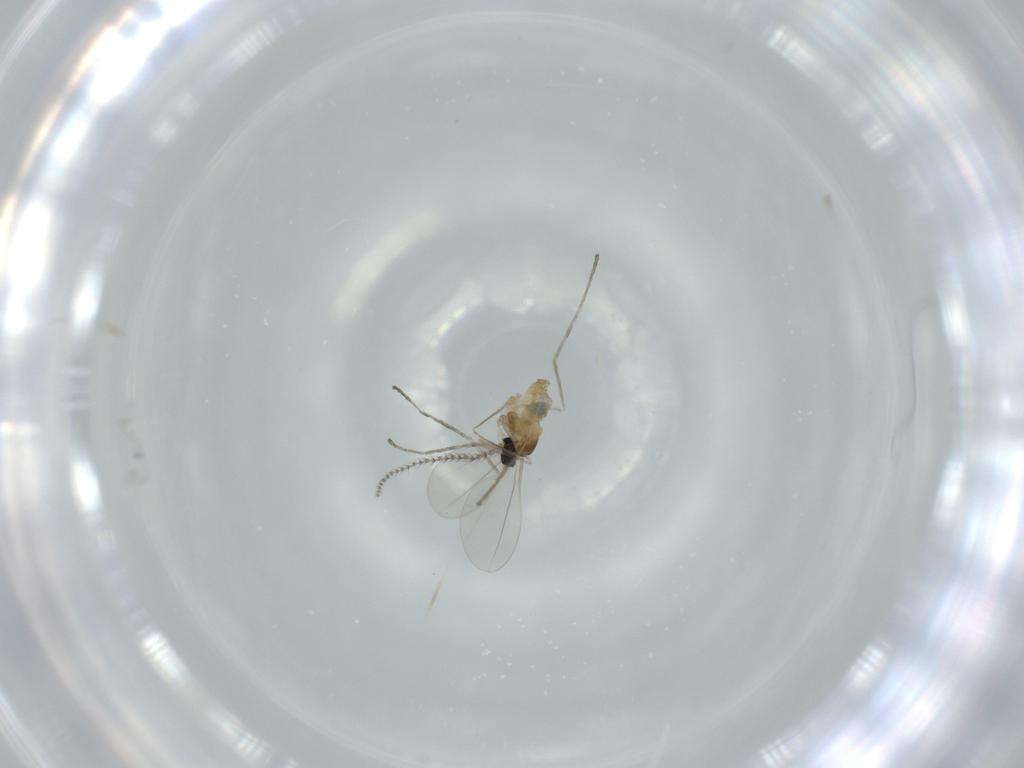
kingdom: Animalia
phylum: Arthropoda
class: Insecta
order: Diptera
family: Cecidomyiidae
